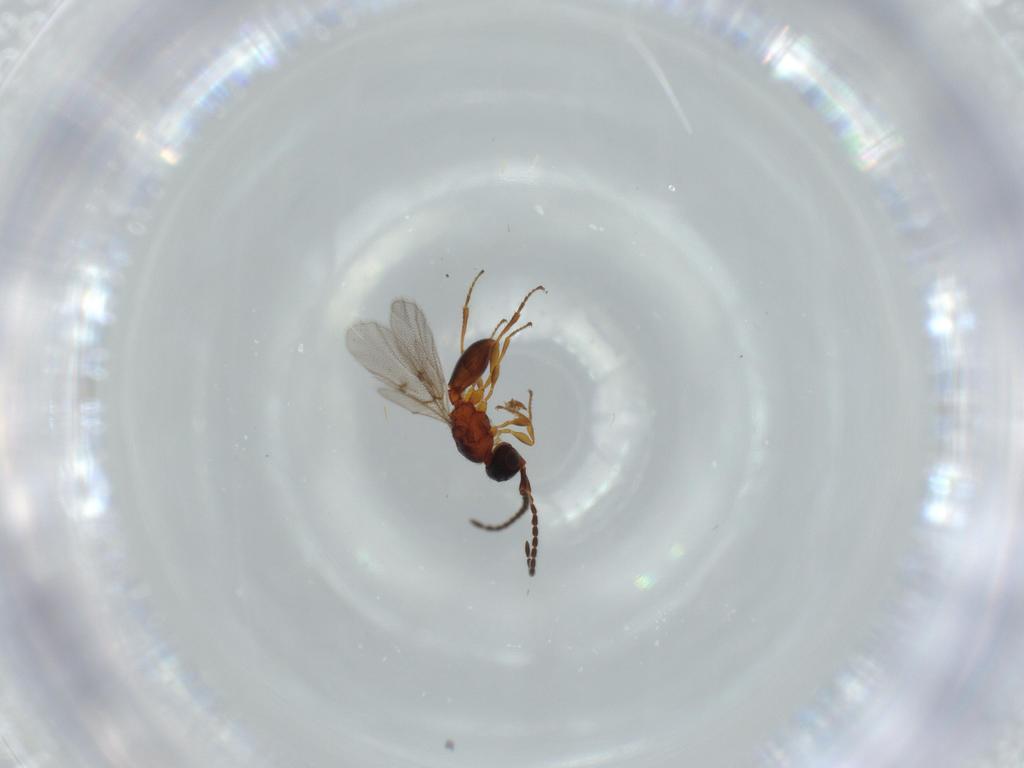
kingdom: Animalia
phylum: Arthropoda
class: Insecta
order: Hymenoptera
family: Diapriidae
